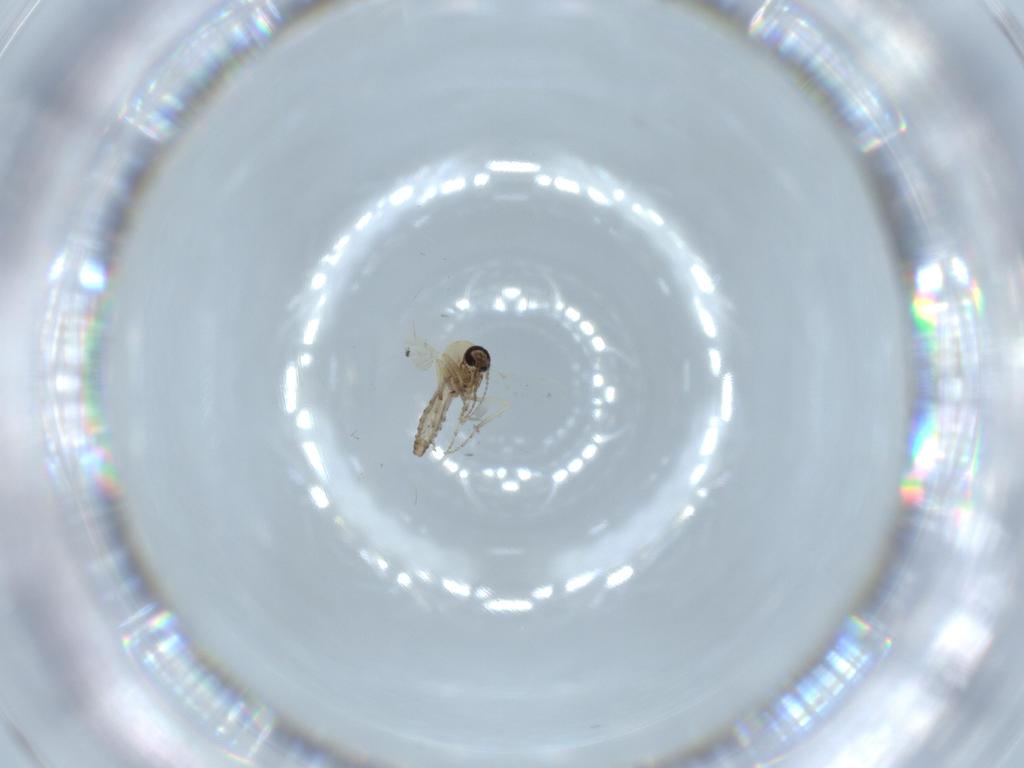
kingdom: Animalia
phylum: Arthropoda
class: Insecta
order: Diptera
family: Ceratopogonidae
